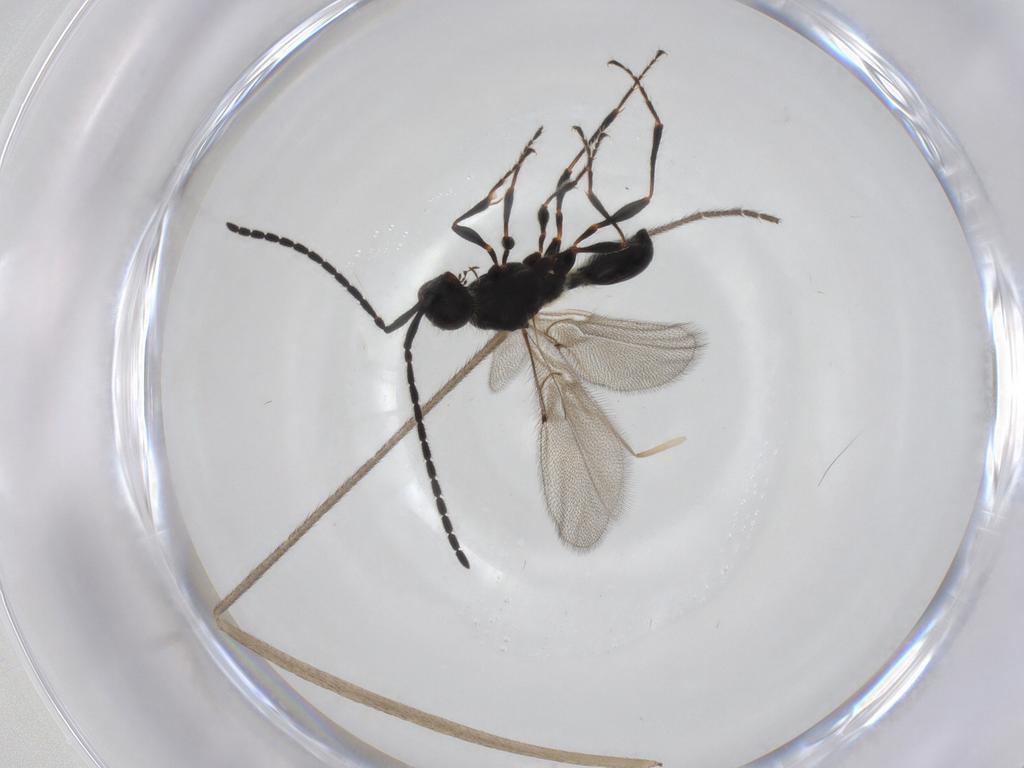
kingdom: Animalia
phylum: Arthropoda
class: Insecta
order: Hymenoptera
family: Diapriidae
